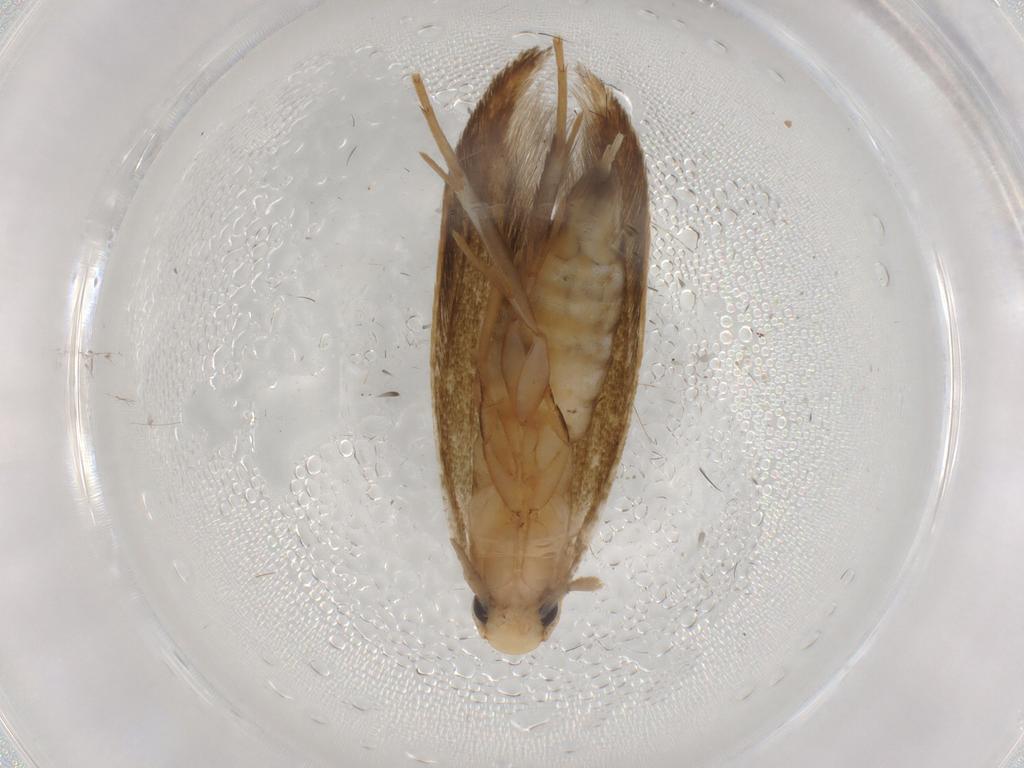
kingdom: Animalia
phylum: Arthropoda
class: Insecta
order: Lepidoptera
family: Tineidae
